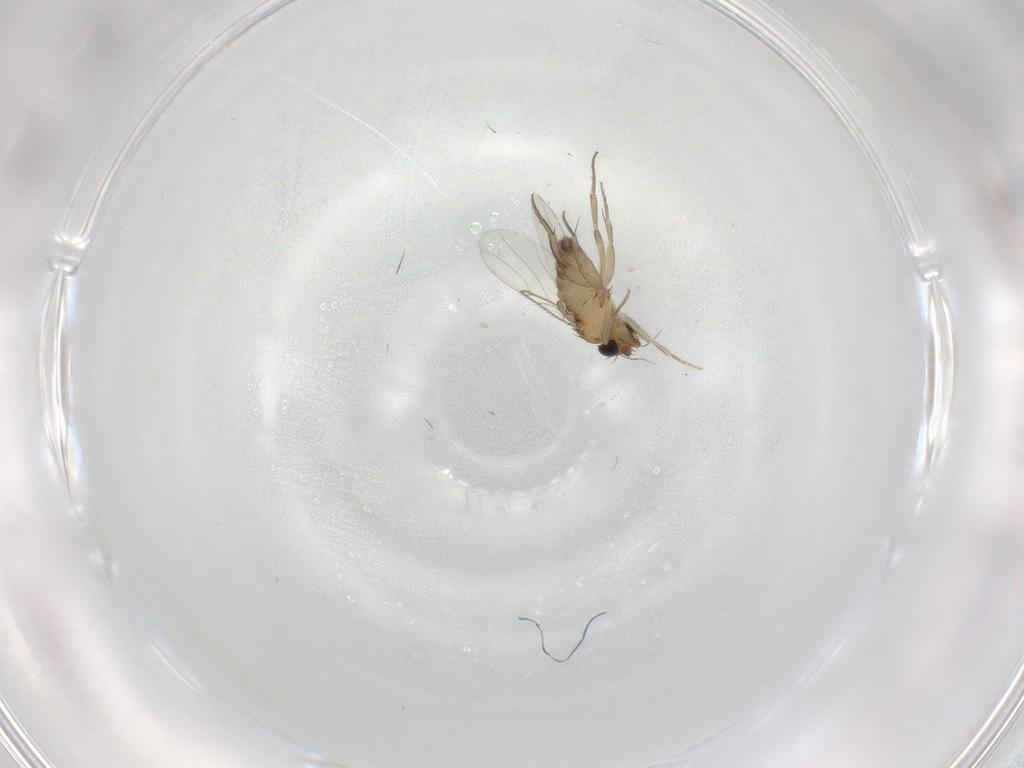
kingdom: Animalia
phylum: Arthropoda
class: Insecta
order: Diptera
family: Phoridae
